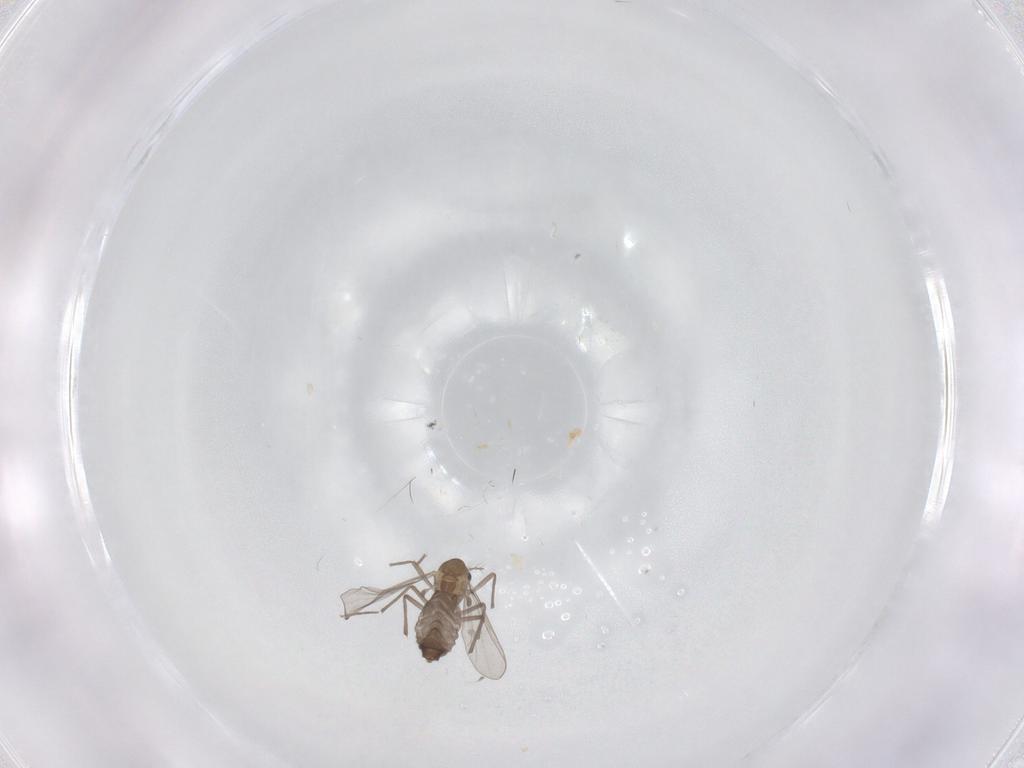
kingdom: Animalia
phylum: Arthropoda
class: Insecta
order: Diptera
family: Chironomidae
